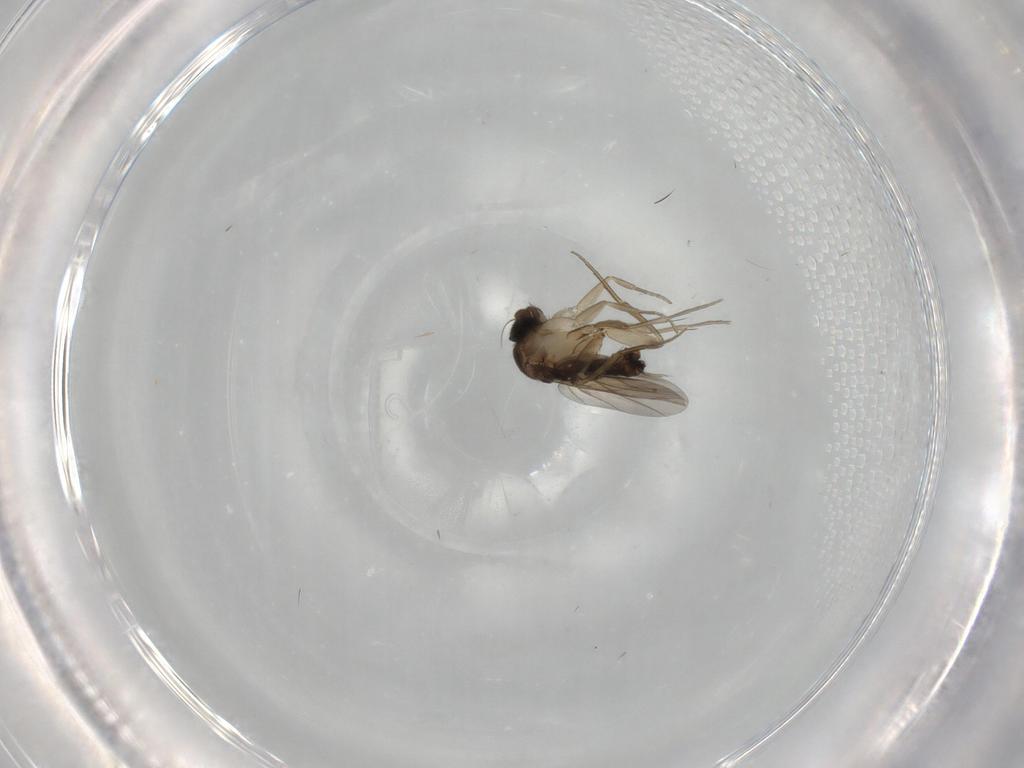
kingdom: Animalia
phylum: Arthropoda
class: Insecta
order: Diptera
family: Phoridae
